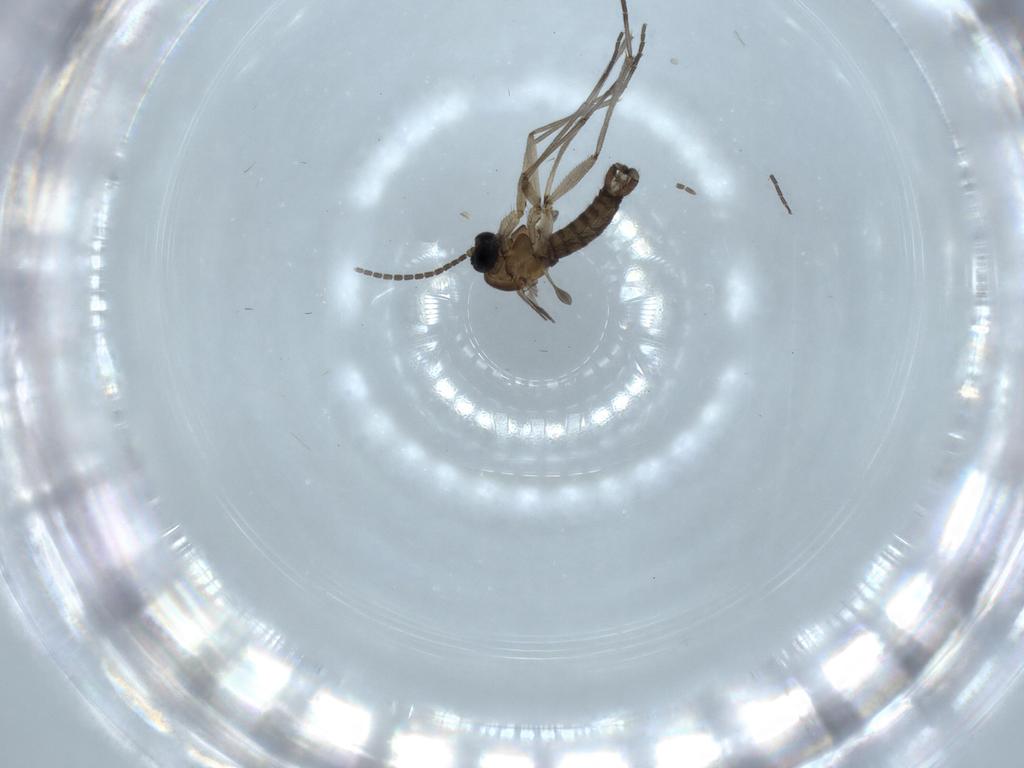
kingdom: Animalia
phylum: Arthropoda
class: Insecta
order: Diptera
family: Sciaridae
